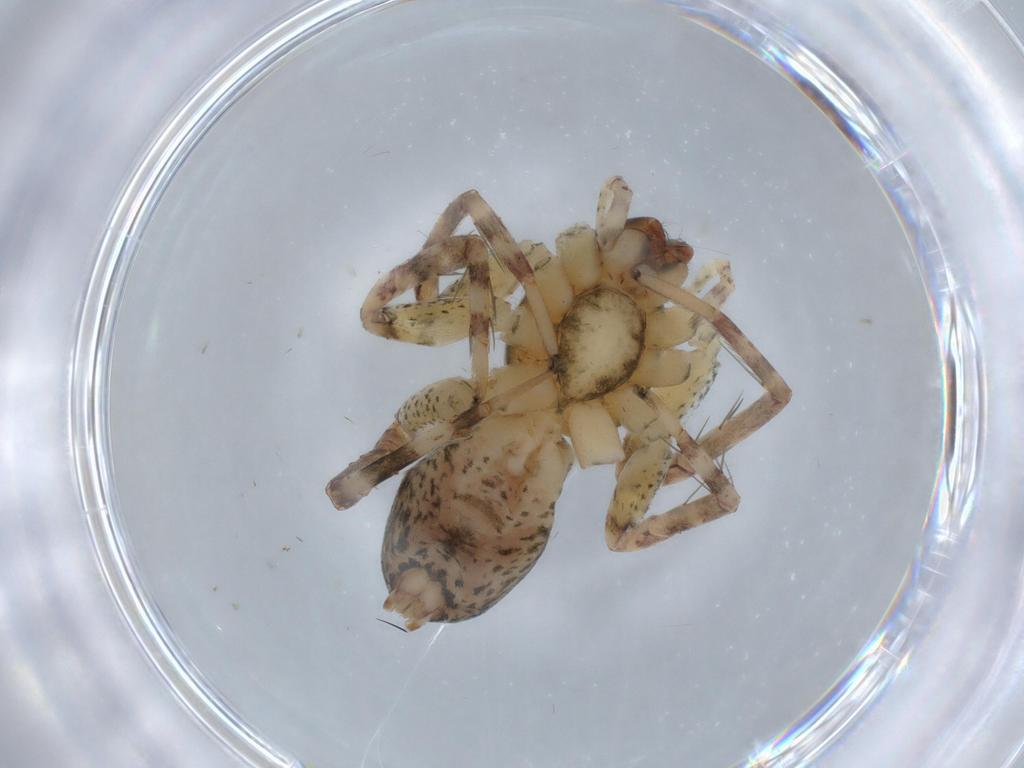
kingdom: Animalia
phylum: Arthropoda
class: Arachnida
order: Araneae
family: Anyphaenidae
